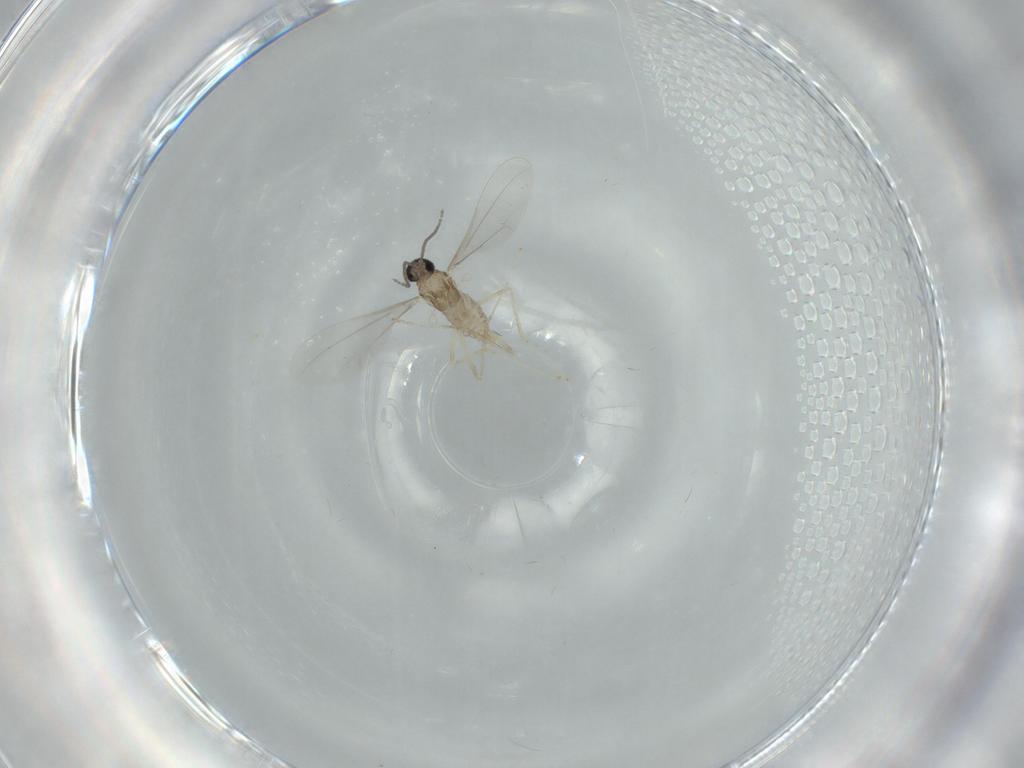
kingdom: Animalia
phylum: Arthropoda
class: Insecta
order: Diptera
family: Cecidomyiidae
